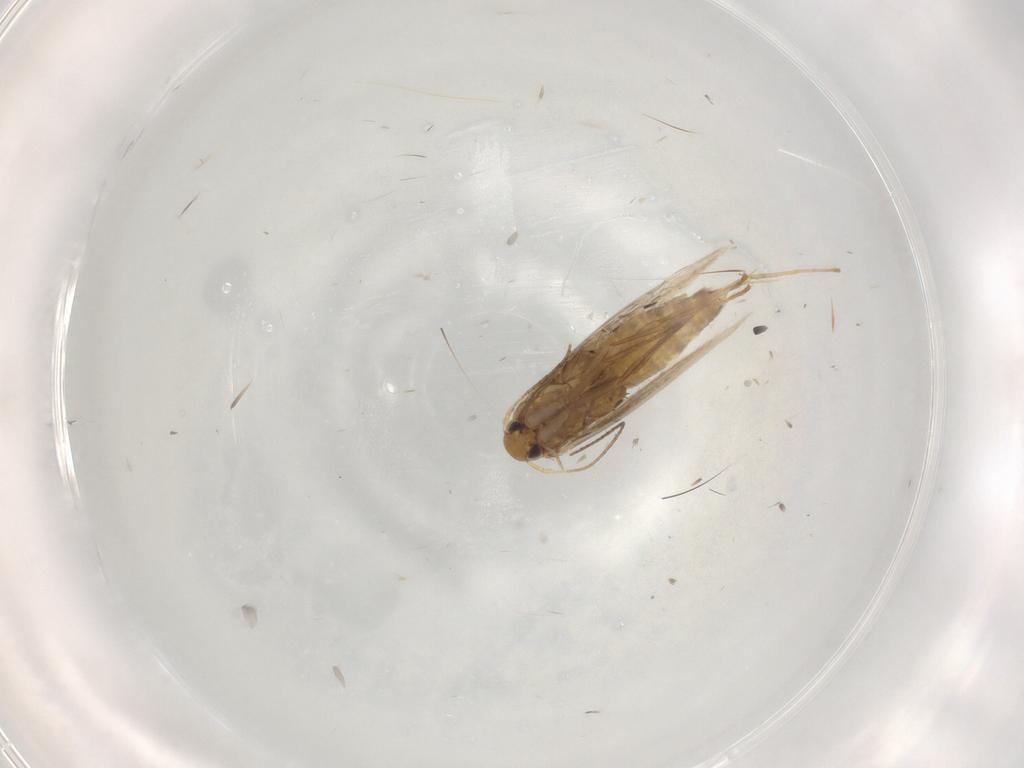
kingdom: Animalia
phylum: Arthropoda
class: Insecta
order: Lepidoptera
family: Gracillariidae
